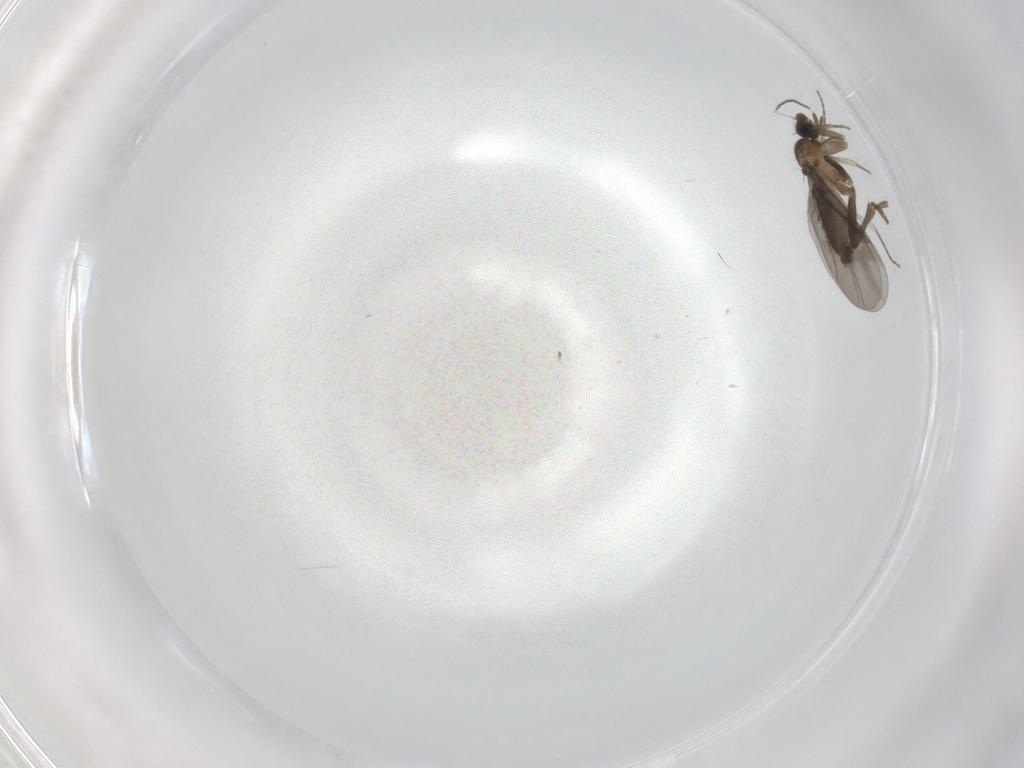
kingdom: Animalia
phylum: Arthropoda
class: Insecta
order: Diptera
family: Phoridae
